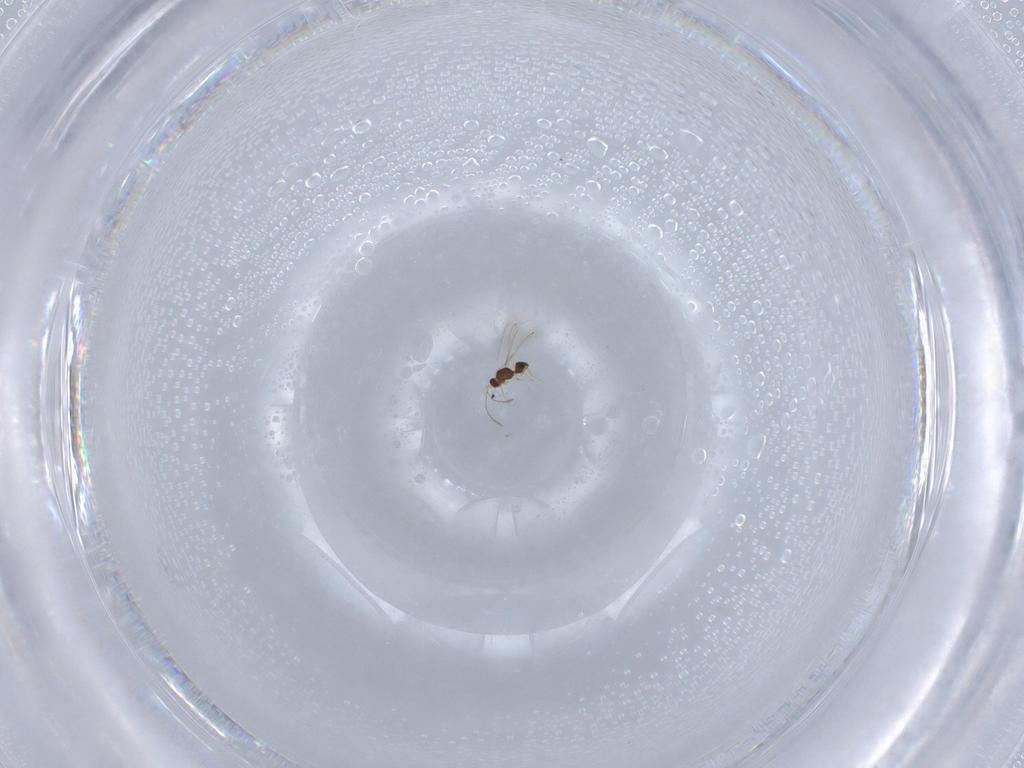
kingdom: Animalia
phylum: Arthropoda
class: Insecta
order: Hymenoptera
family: Mymaridae
